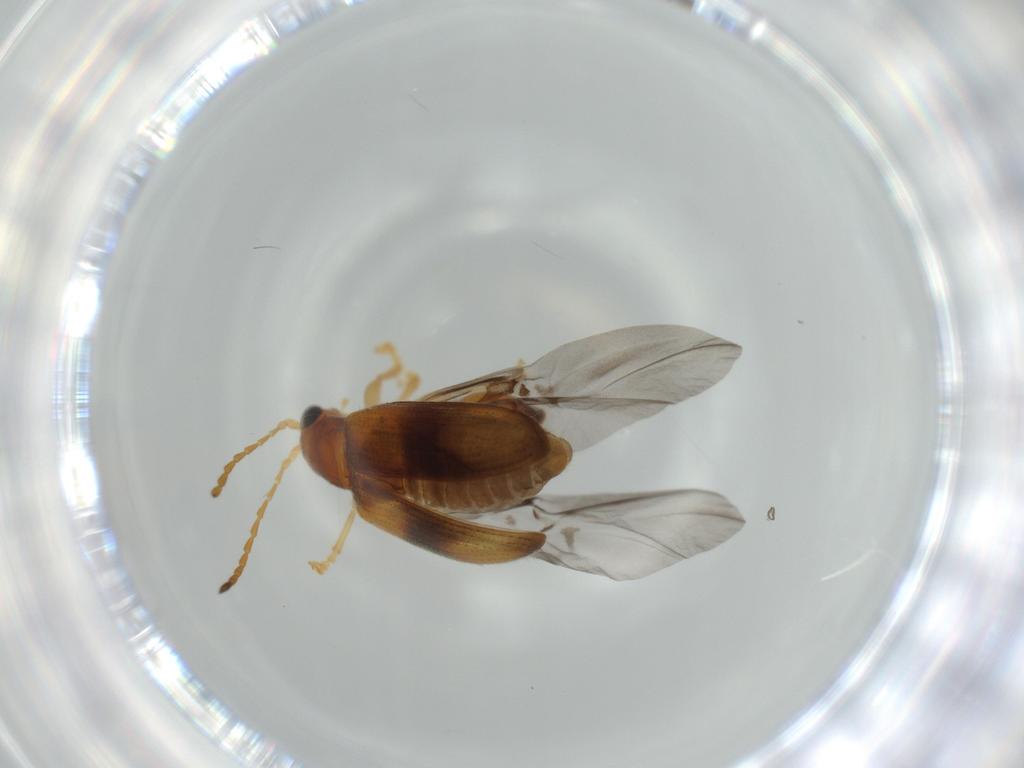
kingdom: Animalia
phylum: Arthropoda
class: Insecta
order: Coleoptera
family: Chrysomelidae
